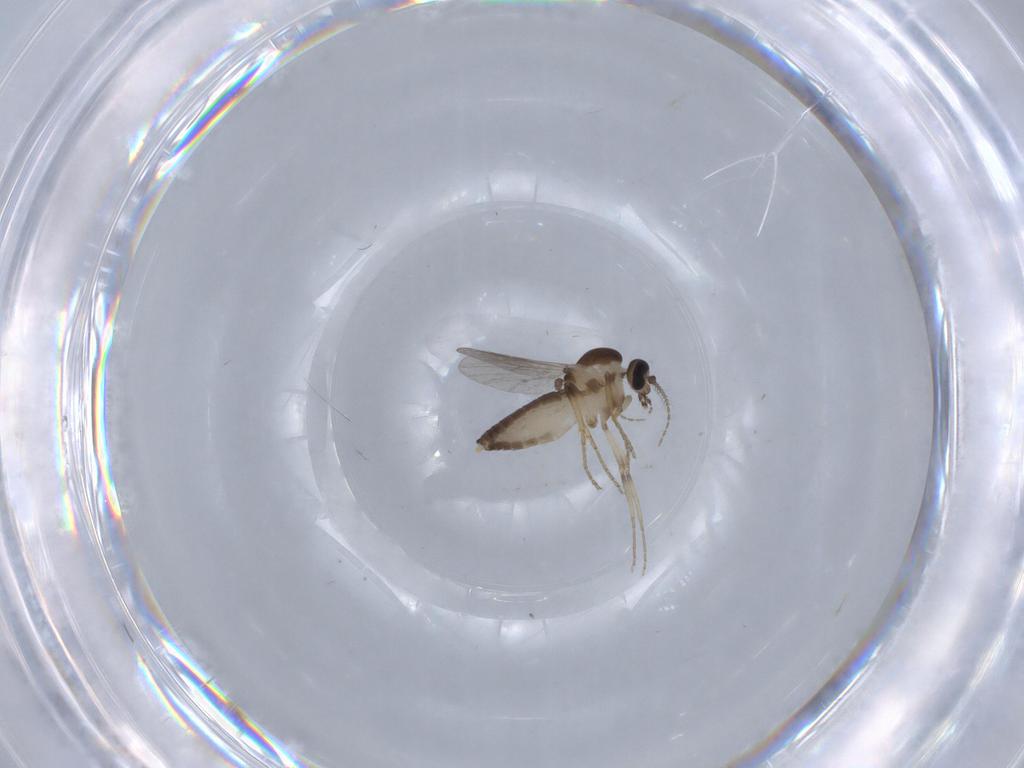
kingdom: Animalia
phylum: Arthropoda
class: Insecta
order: Diptera
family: Ceratopogonidae
